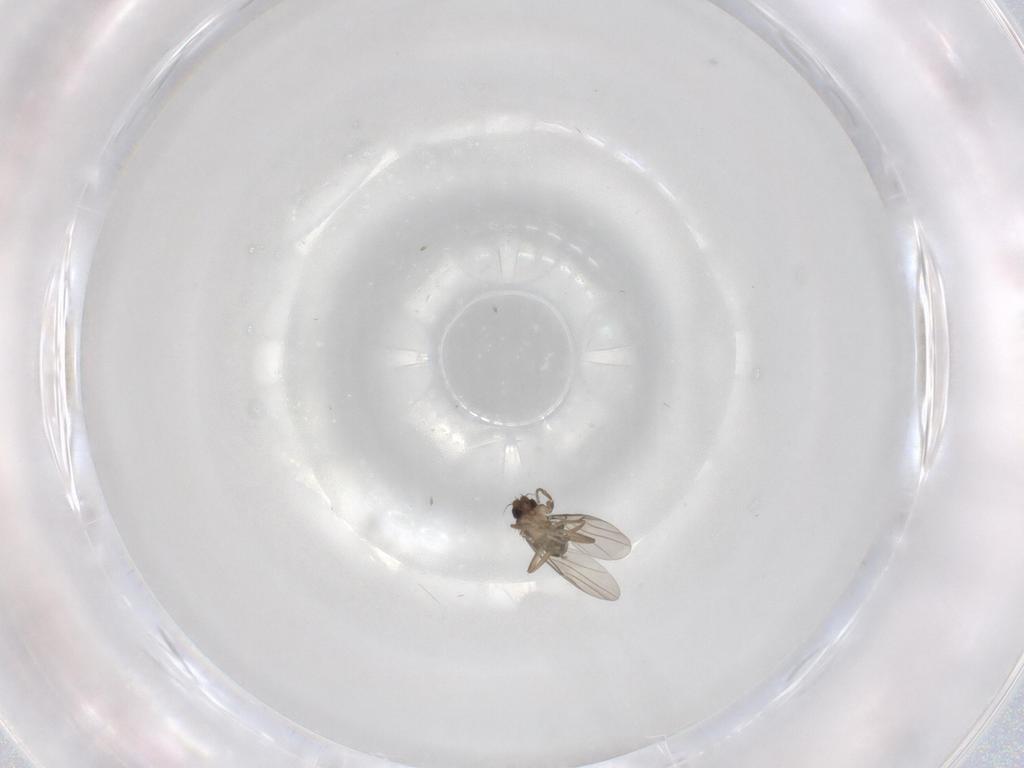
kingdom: Animalia
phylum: Arthropoda
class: Insecta
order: Diptera
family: Phoridae
